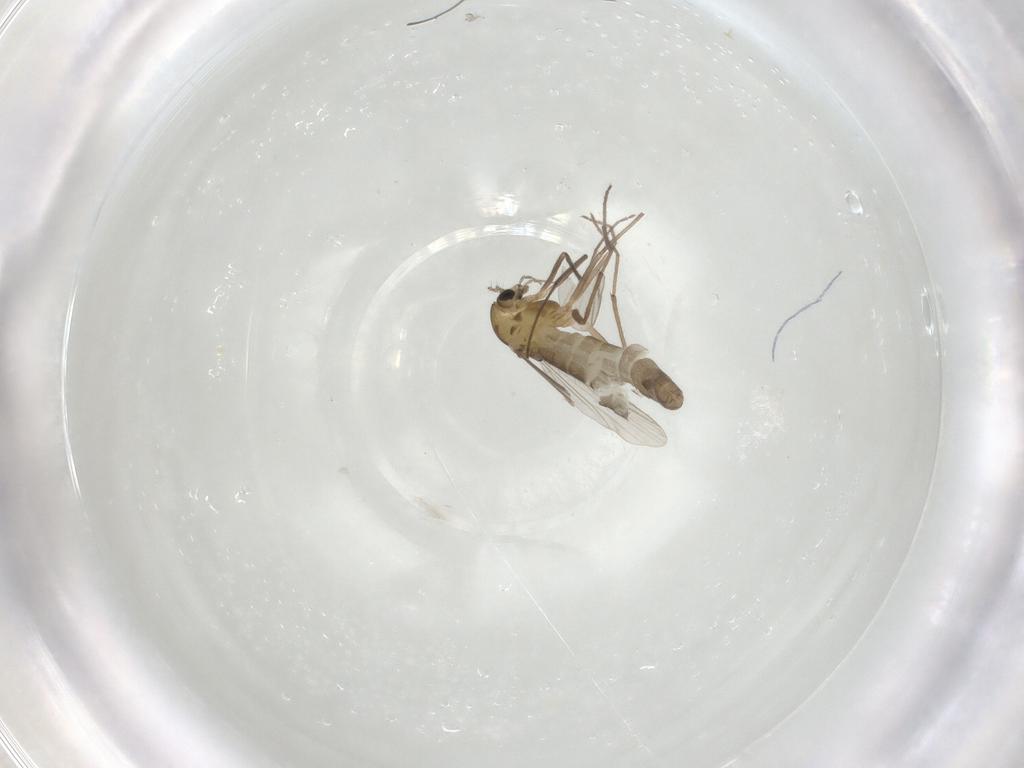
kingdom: Animalia
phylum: Arthropoda
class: Insecta
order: Diptera
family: Chironomidae
